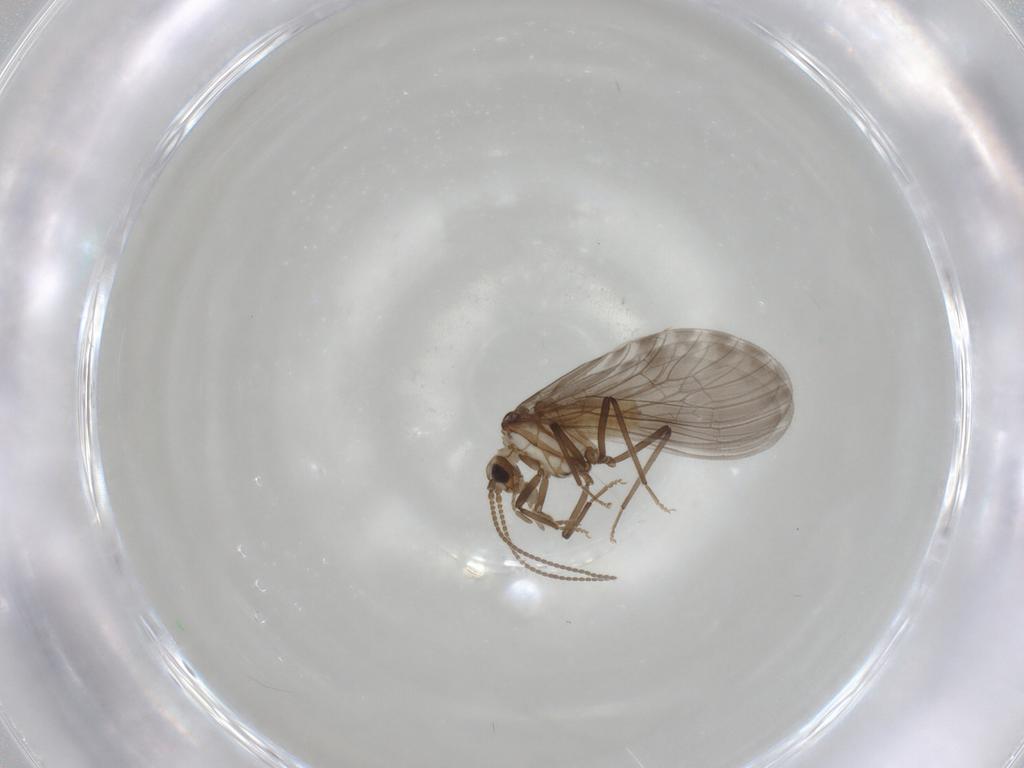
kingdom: Animalia
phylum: Arthropoda
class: Insecta
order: Neuroptera
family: Coniopterygidae
